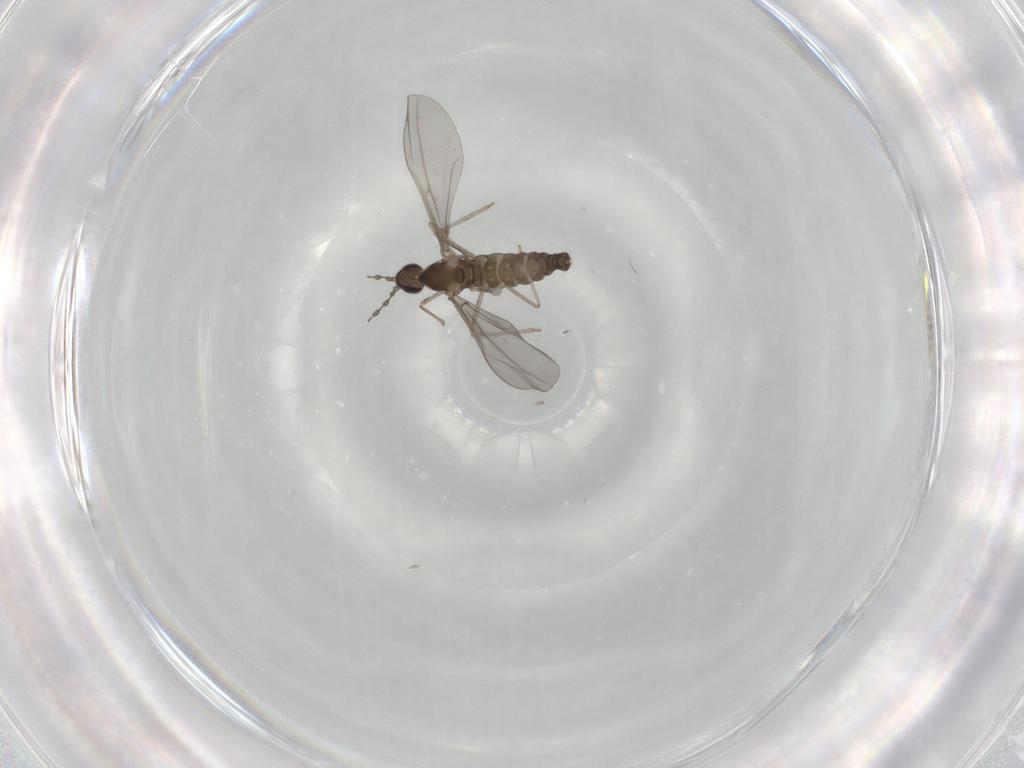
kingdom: Animalia
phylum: Arthropoda
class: Insecta
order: Diptera
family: Cecidomyiidae
